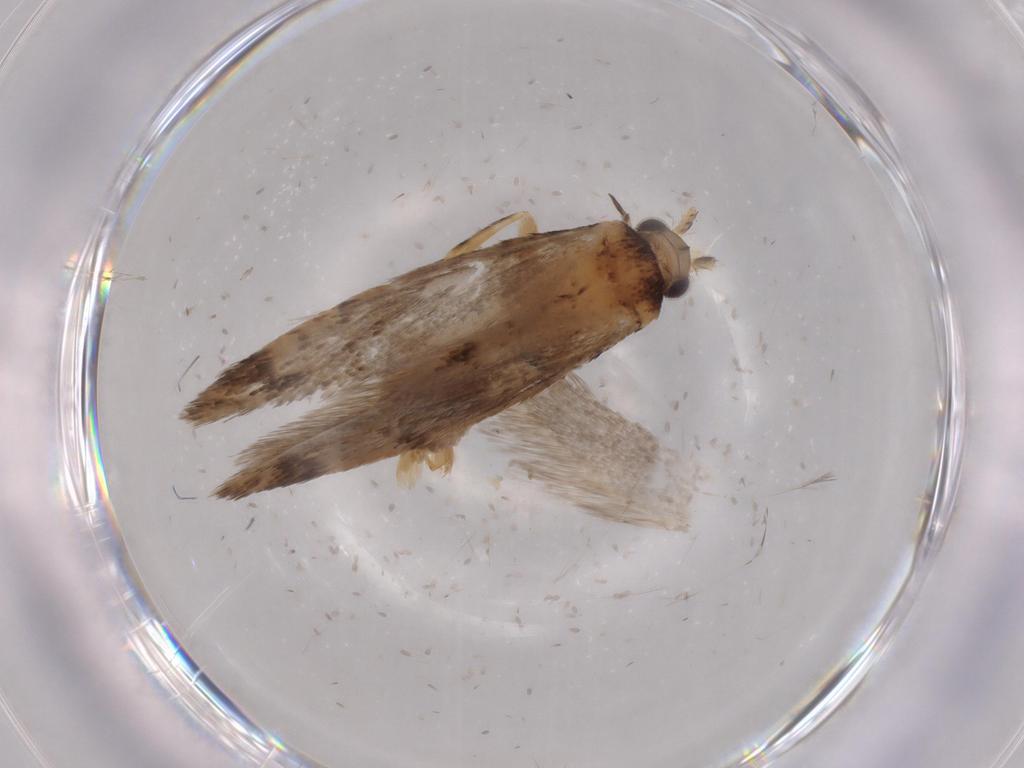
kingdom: Animalia
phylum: Arthropoda
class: Insecta
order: Lepidoptera
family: Tineidae
